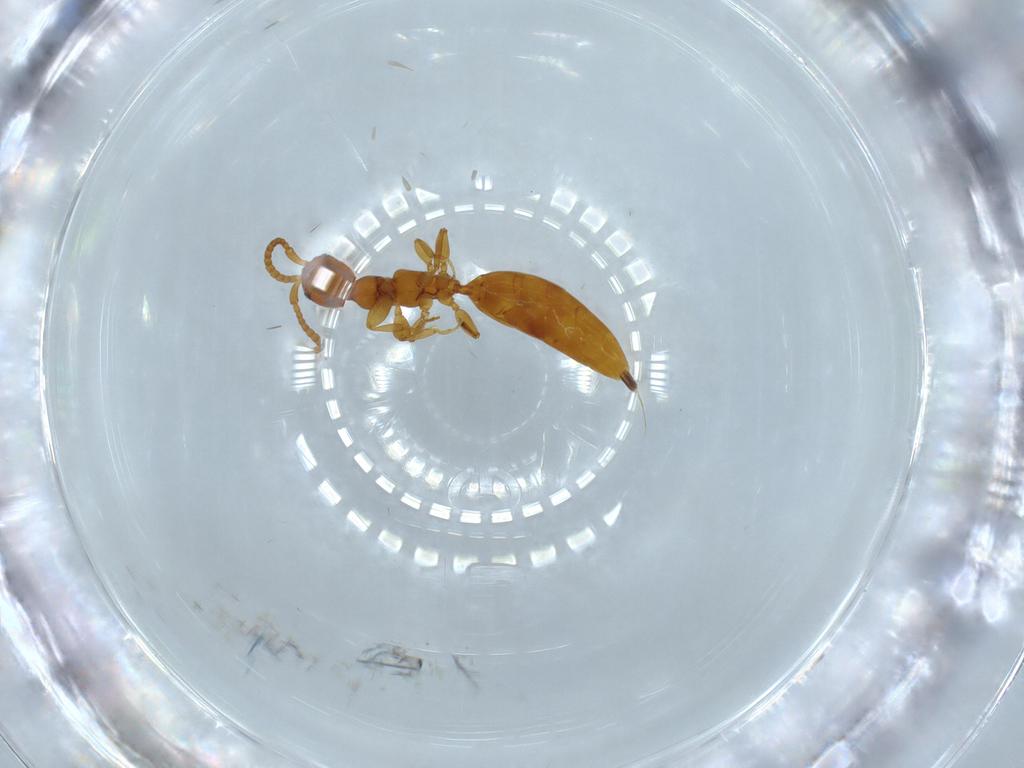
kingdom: Animalia
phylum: Arthropoda
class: Insecta
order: Hymenoptera
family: Bethylidae
